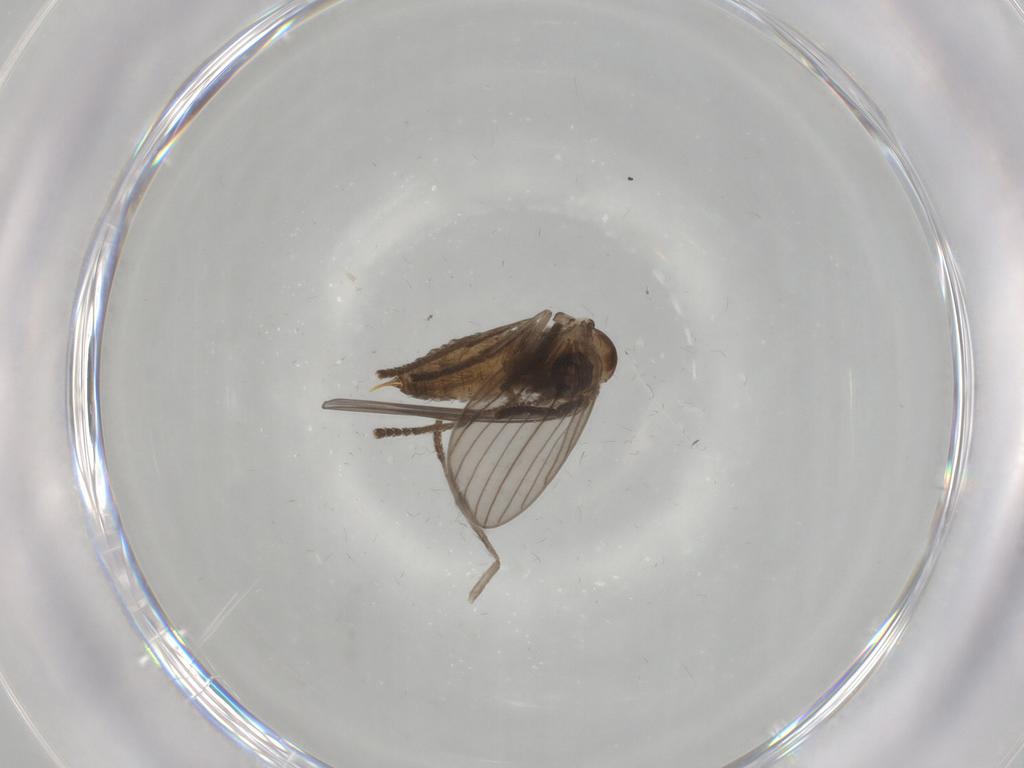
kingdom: Animalia
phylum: Arthropoda
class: Insecta
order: Diptera
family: Psychodidae
